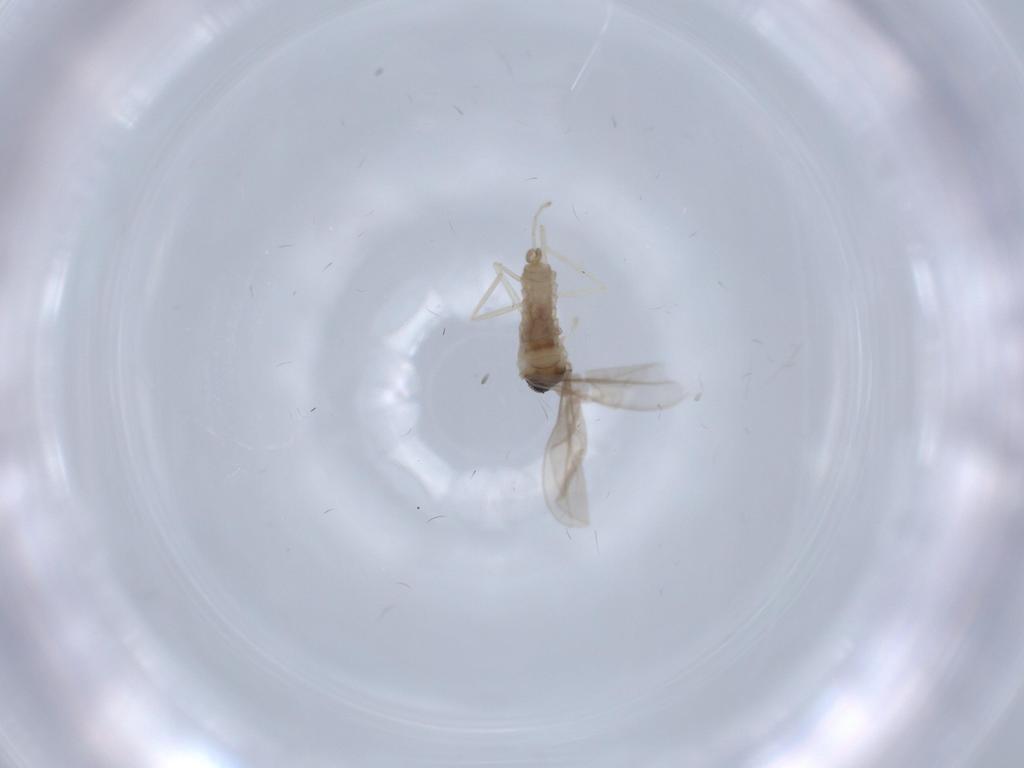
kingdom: Animalia
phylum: Arthropoda
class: Insecta
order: Diptera
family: Cecidomyiidae
